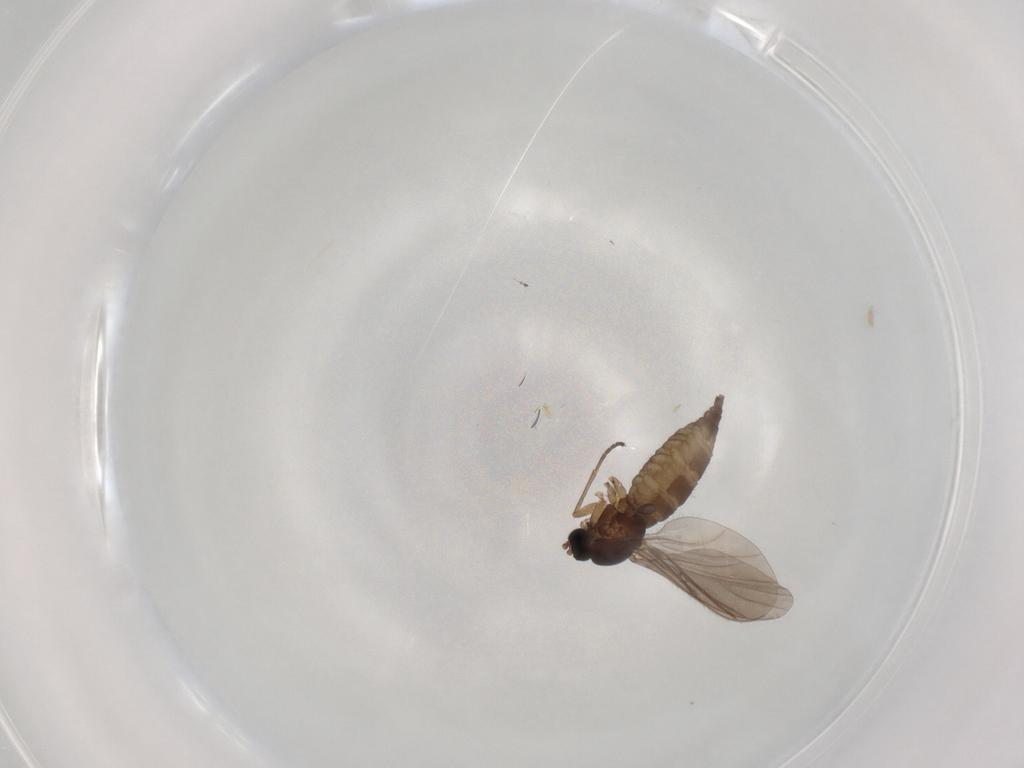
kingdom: Animalia
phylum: Arthropoda
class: Insecta
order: Diptera
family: Sciaridae
